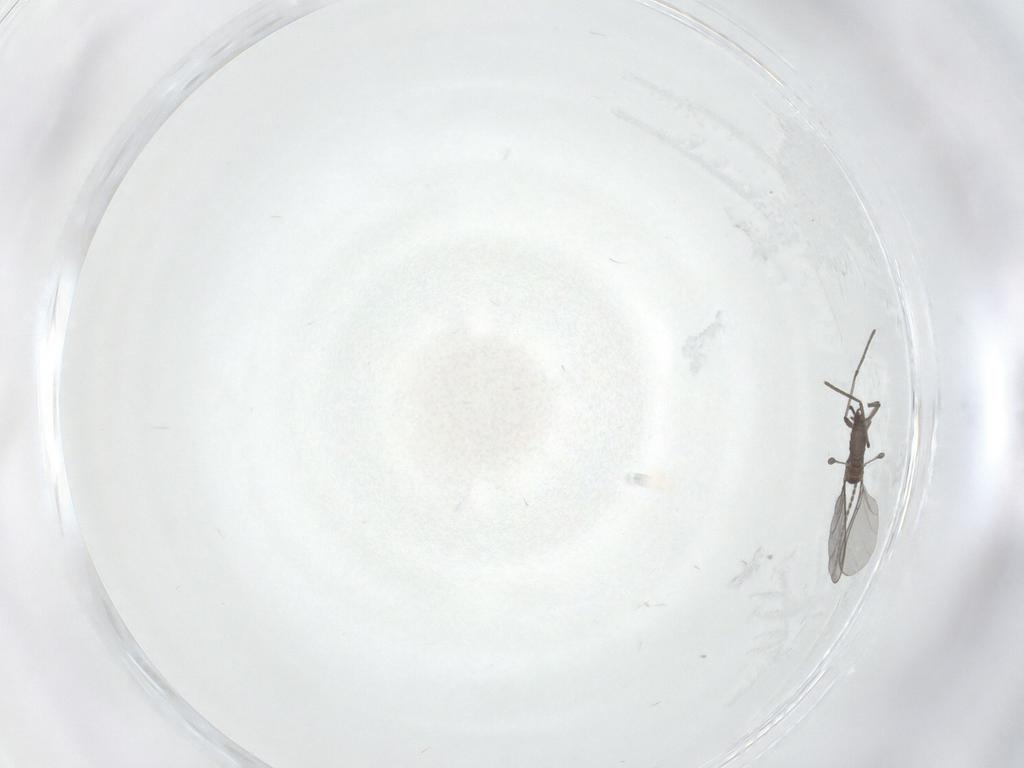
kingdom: Animalia
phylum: Arthropoda
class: Insecta
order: Diptera
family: Sciaridae
